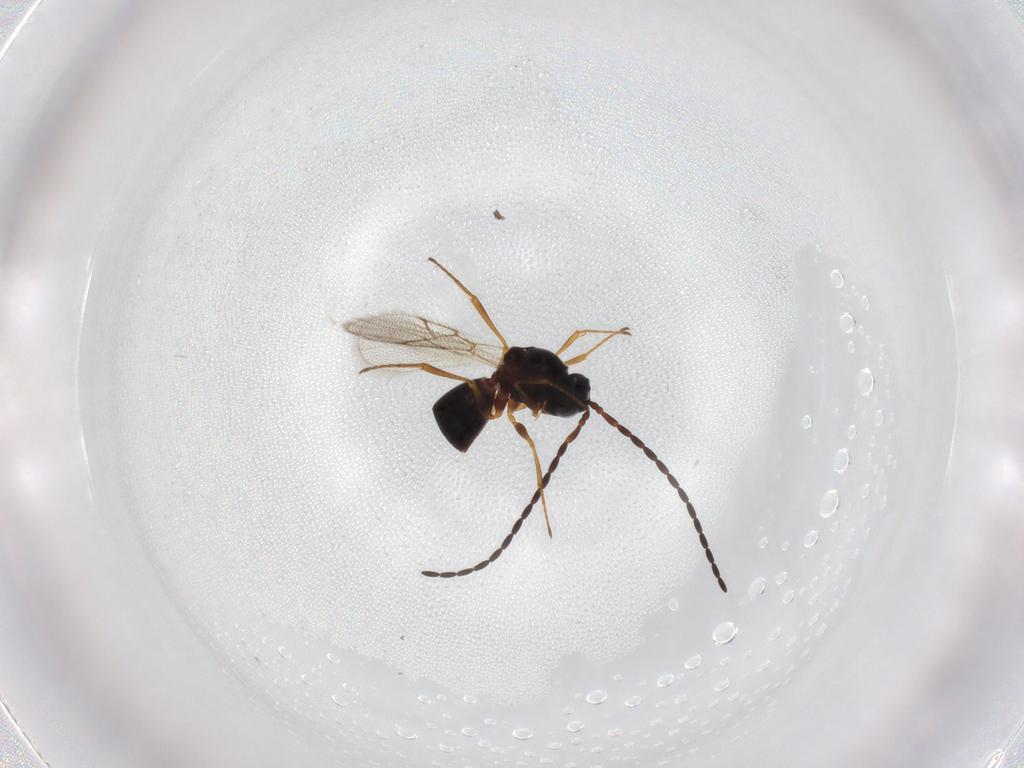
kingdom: Animalia
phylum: Arthropoda
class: Insecta
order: Hymenoptera
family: Figitidae
